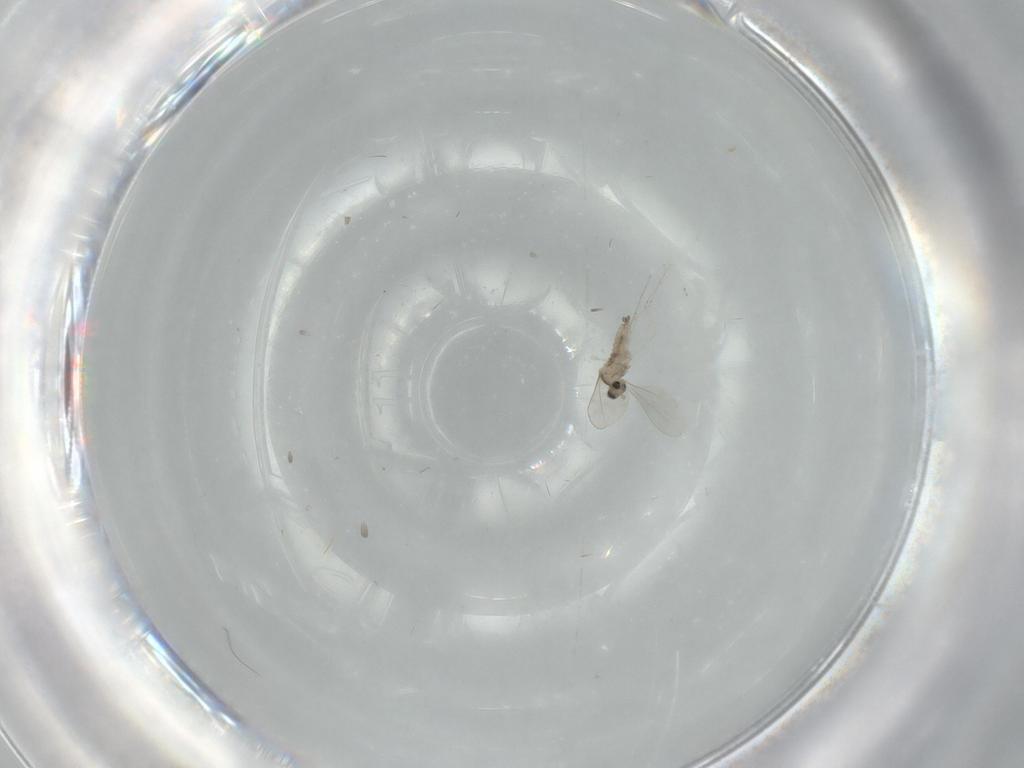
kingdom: Animalia
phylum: Arthropoda
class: Insecta
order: Diptera
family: Cecidomyiidae
